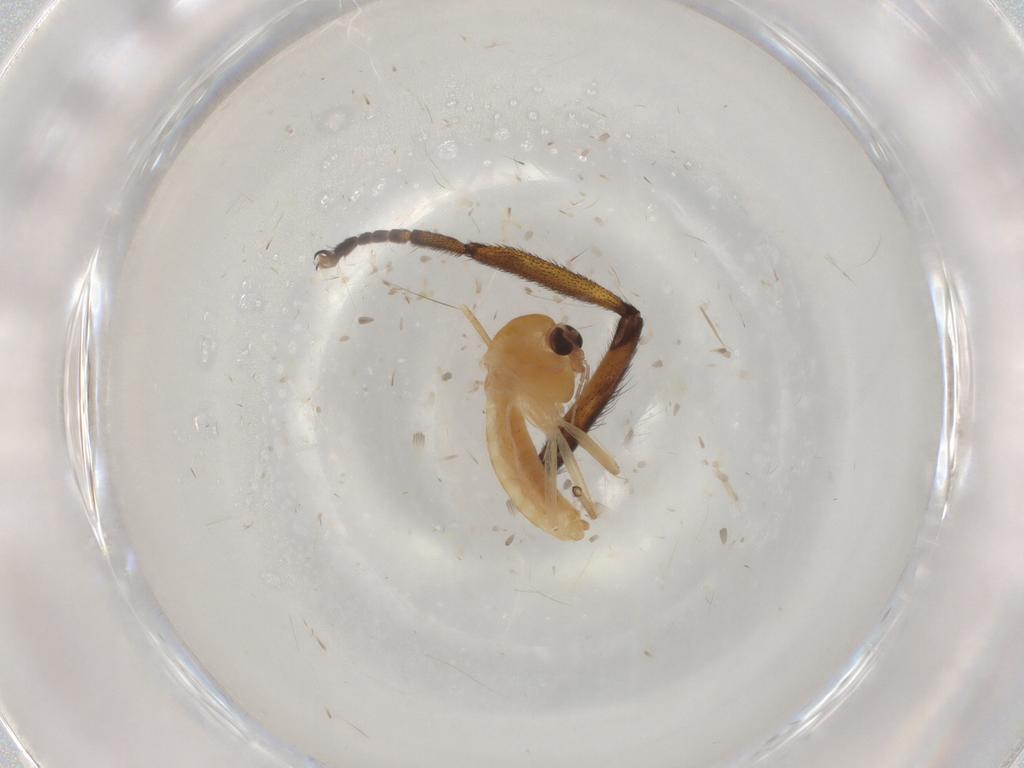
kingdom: Animalia
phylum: Arthropoda
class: Insecta
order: Diptera
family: Chironomidae
